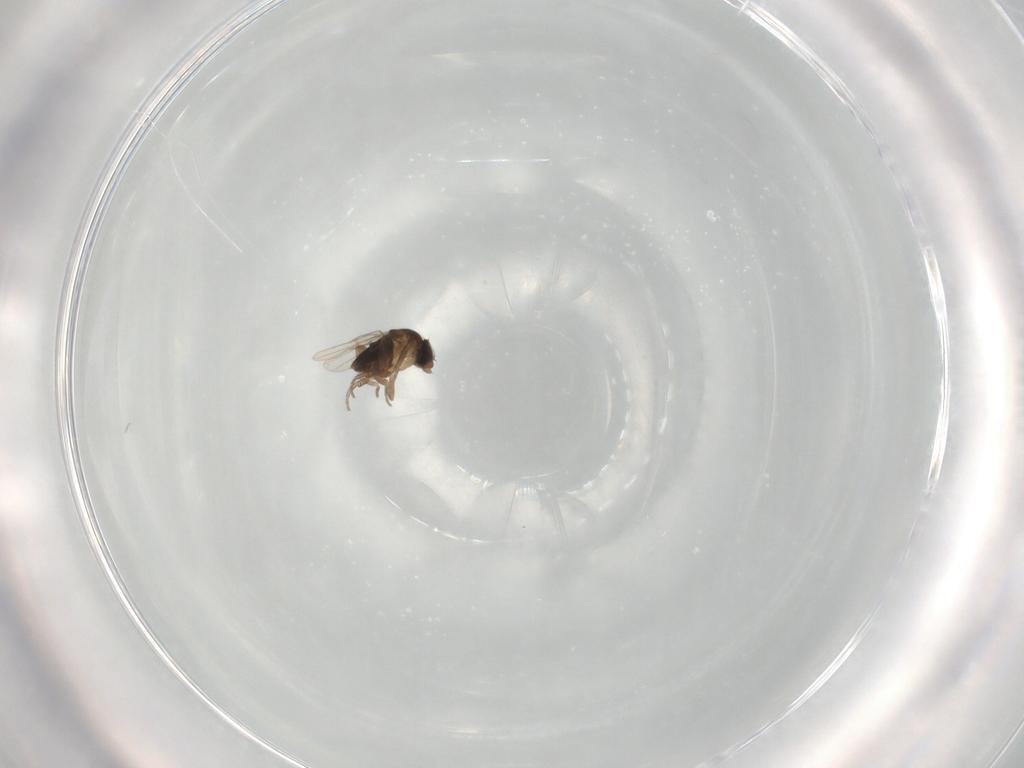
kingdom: Animalia
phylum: Arthropoda
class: Insecta
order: Diptera
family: Phoridae
